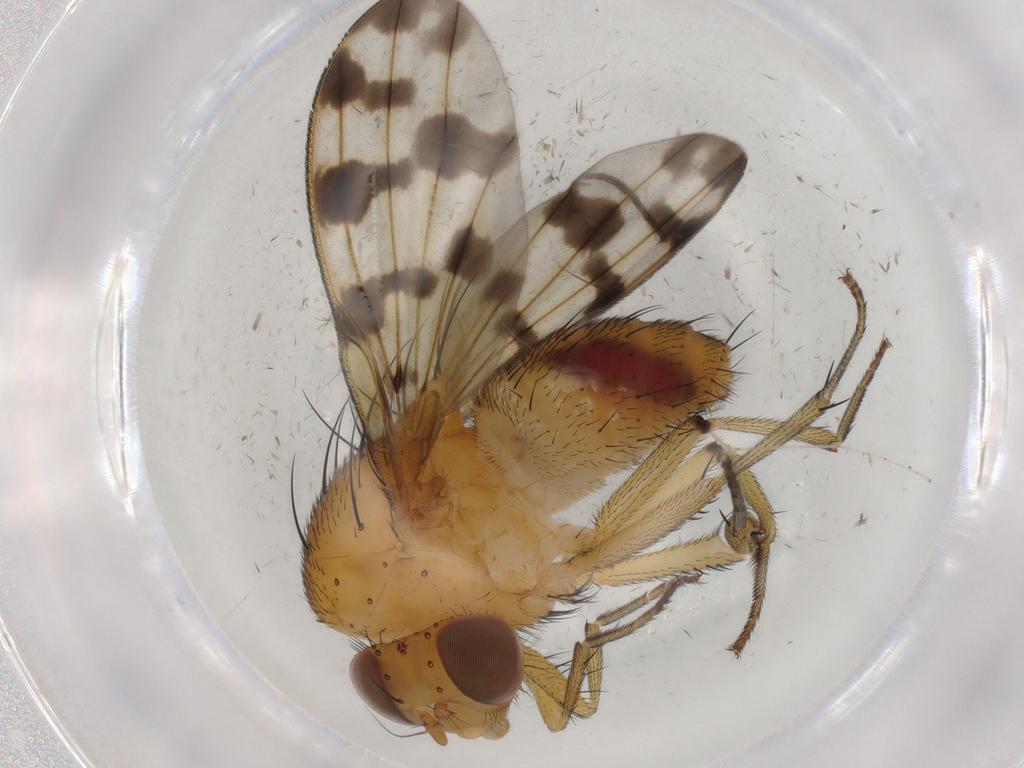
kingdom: Animalia
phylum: Arthropoda
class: Insecta
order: Diptera
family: Cecidomyiidae
